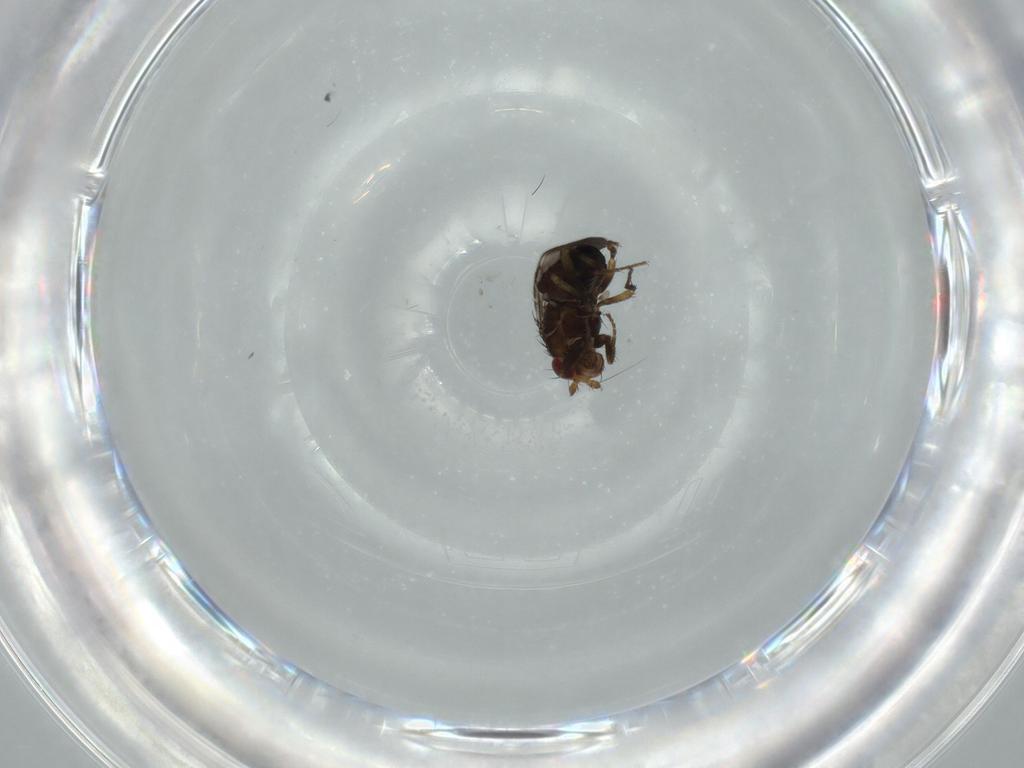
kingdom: Animalia
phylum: Arthropoda
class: Insecta
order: Diptera
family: Sphaeroceridae
